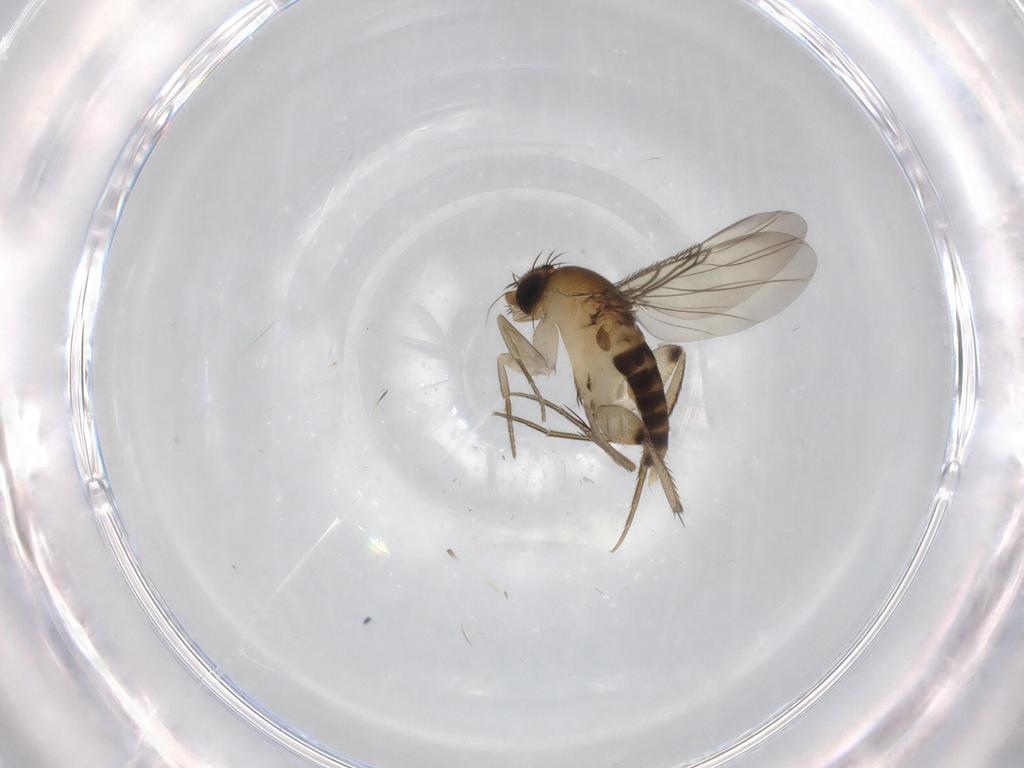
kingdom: Animalia
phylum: Arthropoda
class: Insecta
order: Diptera
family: Phoridae
